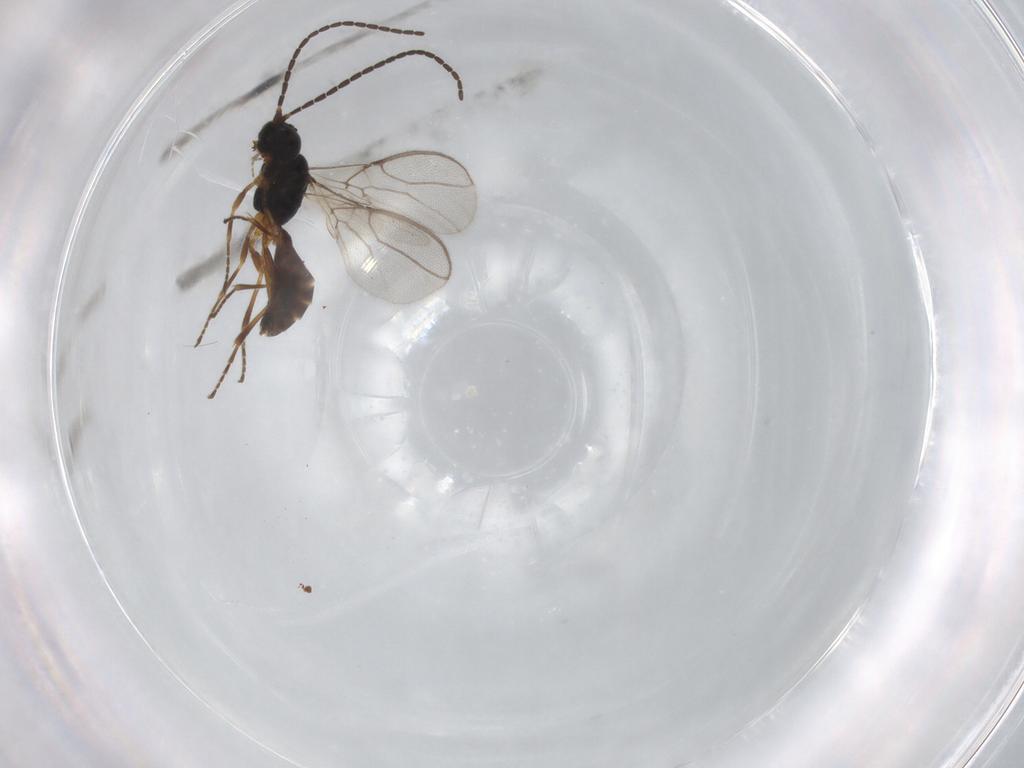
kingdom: Animalia
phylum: Arthropoda
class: Insecta
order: Hymenoptera
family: Braconidae
